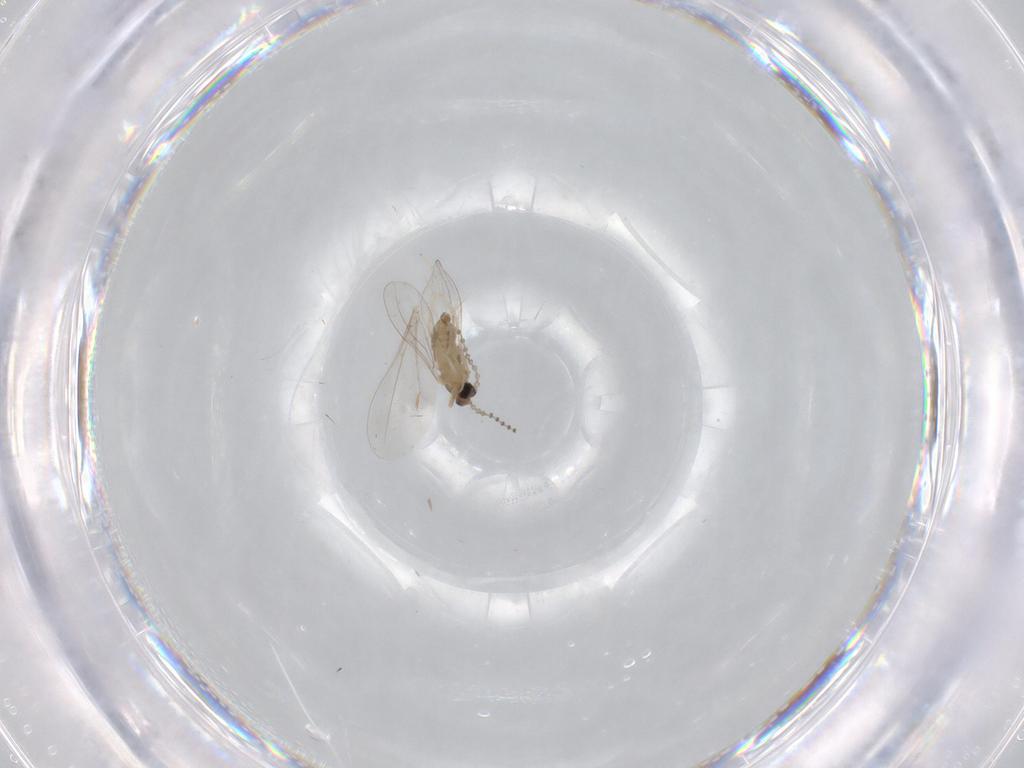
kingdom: Animalia
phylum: Arthropoda
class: Insecta
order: Diptera
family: Cecidomyiidae
